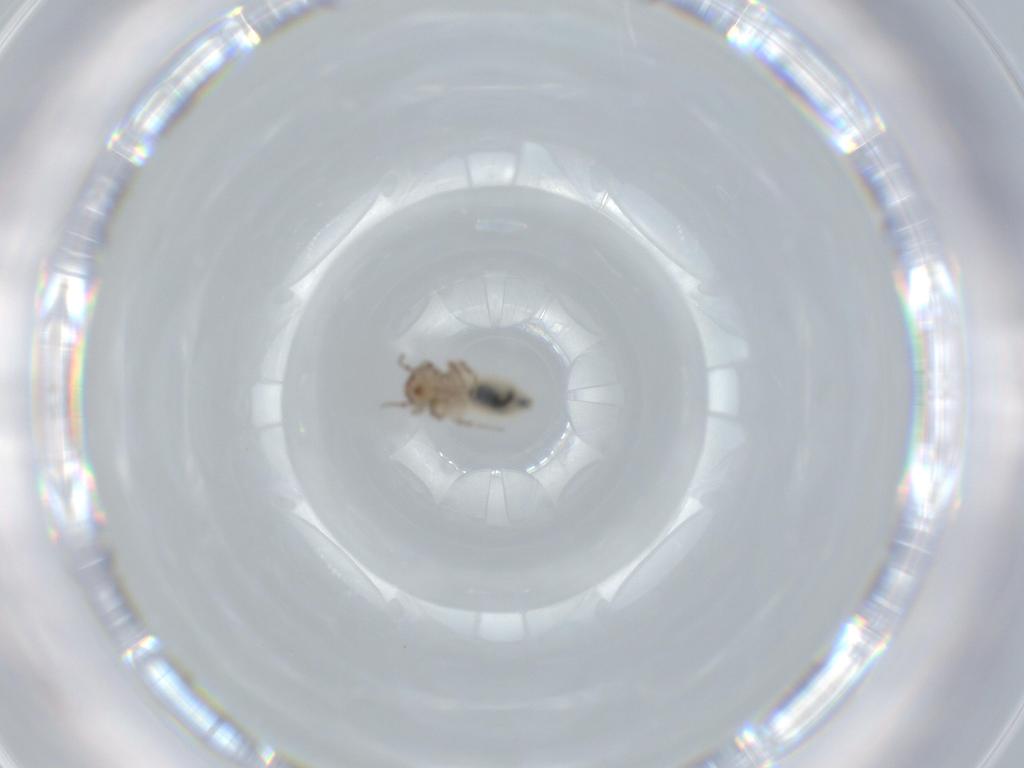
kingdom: Animalia
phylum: Arthropoda
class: Insecta
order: Psocodea
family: Lepidopsocidae
